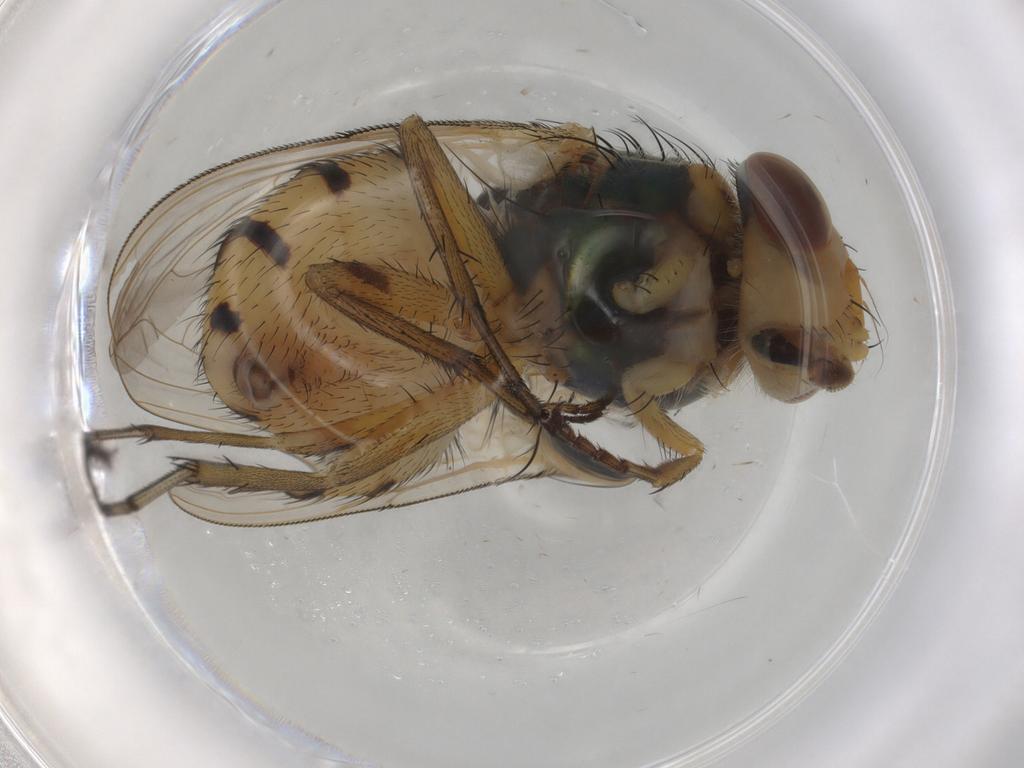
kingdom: Animalia
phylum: Arthropoda
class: Insecta
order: Diptera
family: Calliphoridae
